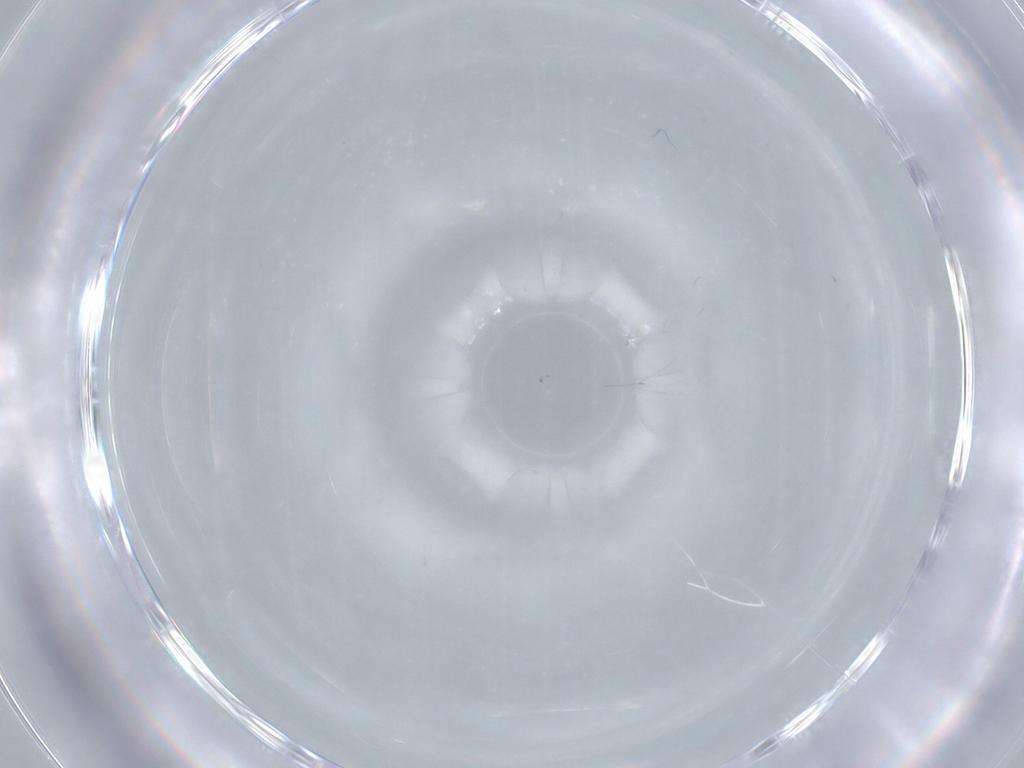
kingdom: Animalia
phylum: Arthropoda
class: Insecta
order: Diptera
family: Cecidomyiidae
